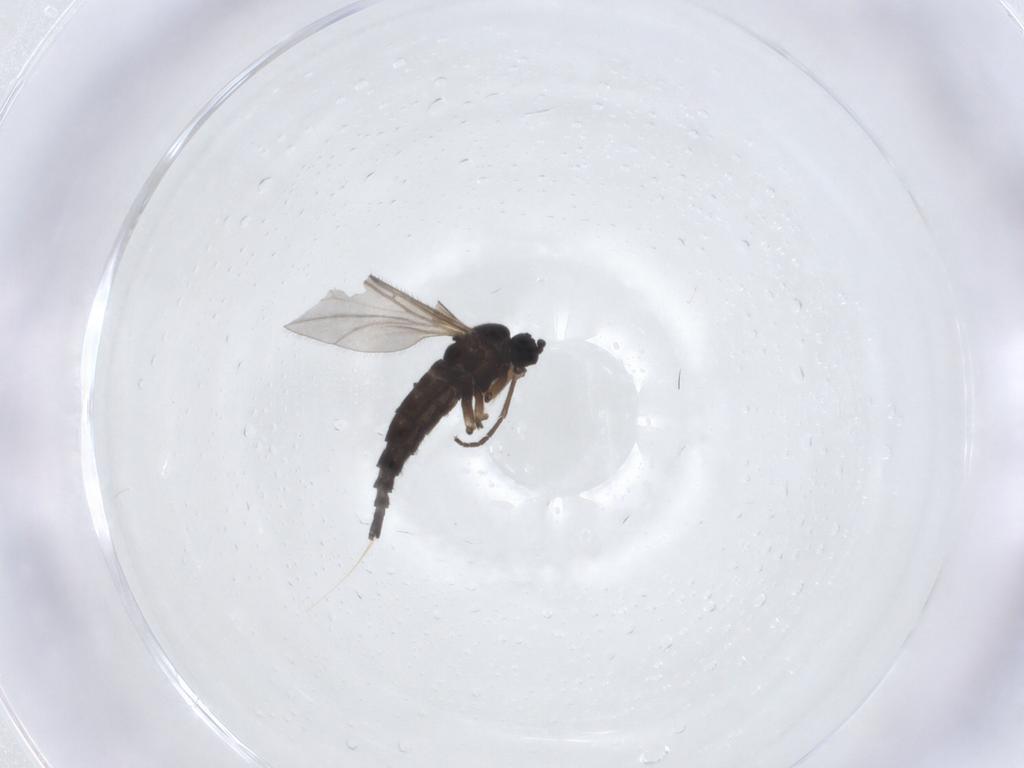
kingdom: Animalia
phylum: Arthropoda
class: Insecta
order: Diptera
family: Sciaridae
